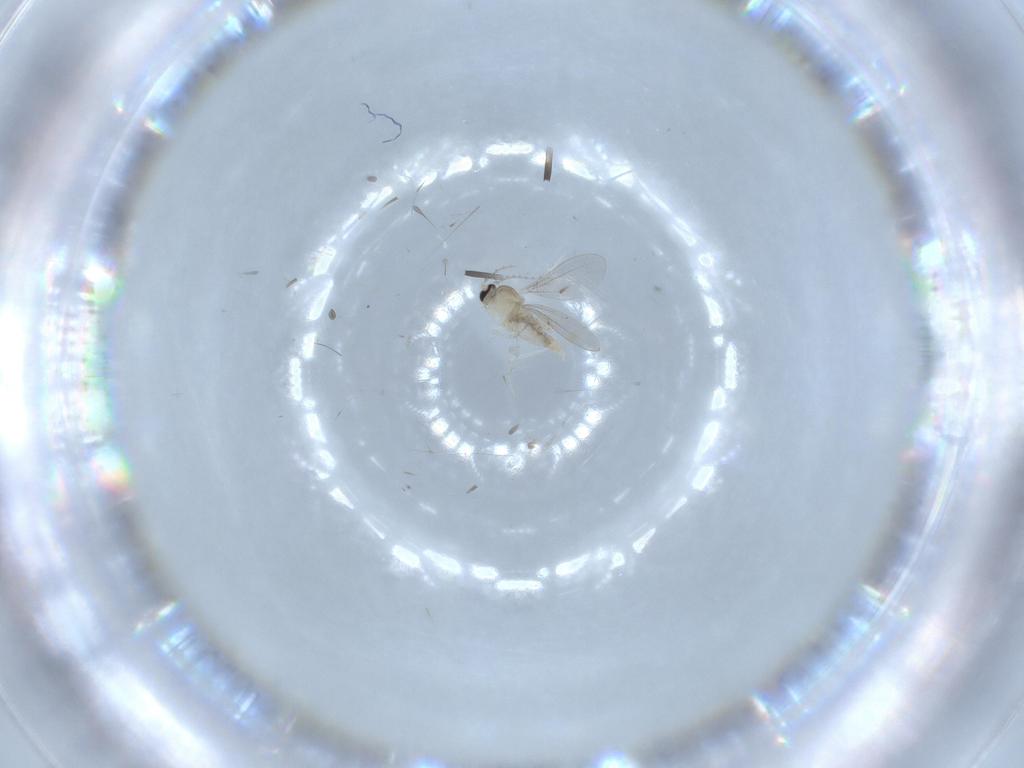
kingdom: Animalia
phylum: Arthropoda
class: Insecta
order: Diptera
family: Cecidomyiidae
